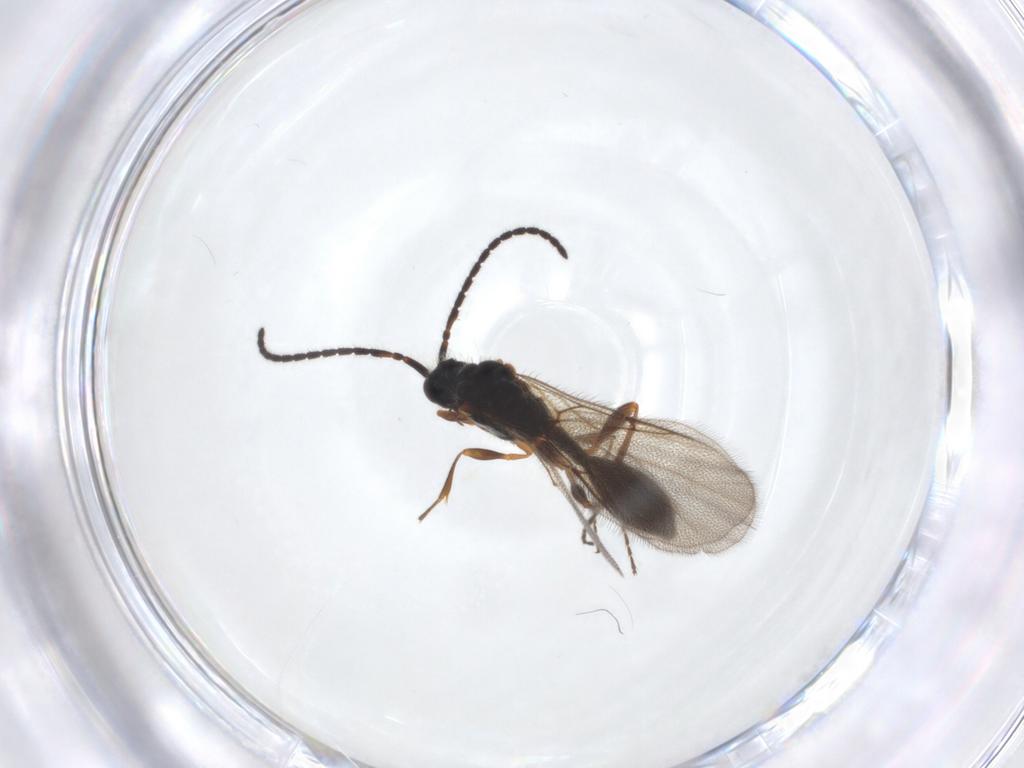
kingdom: Animalia
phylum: Arthropoda
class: Insecta
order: Hymenoptera
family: Diapriidae
